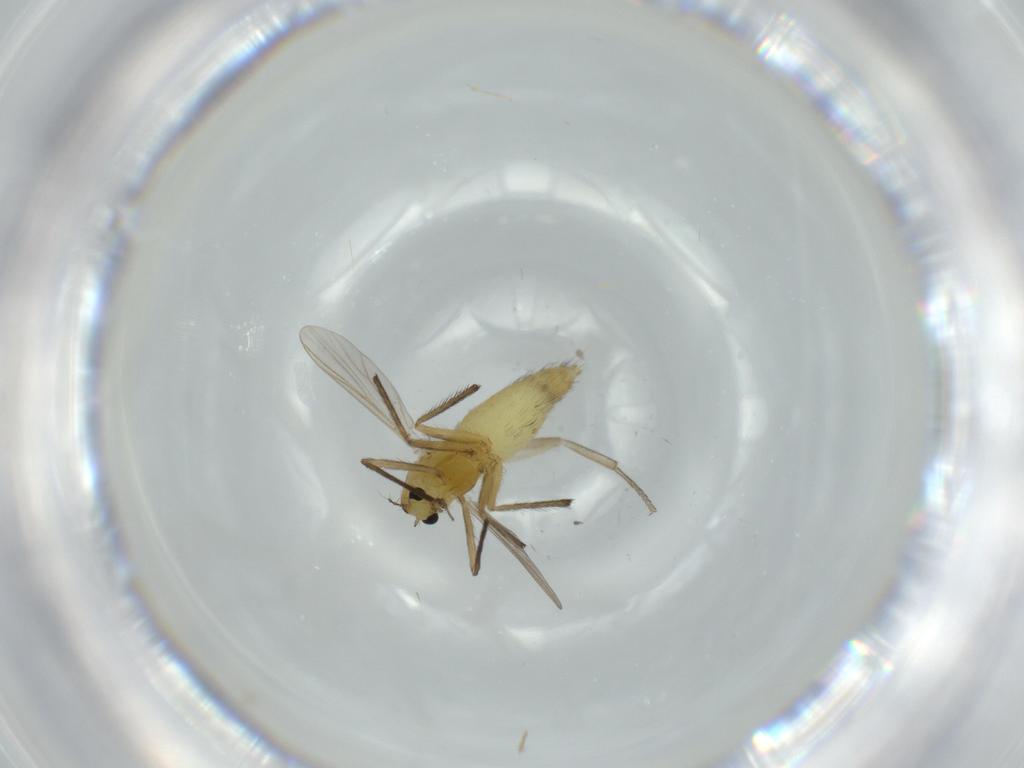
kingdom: Animalia
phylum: Arthropoda
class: Insecta
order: Diptera
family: Chironomidae
